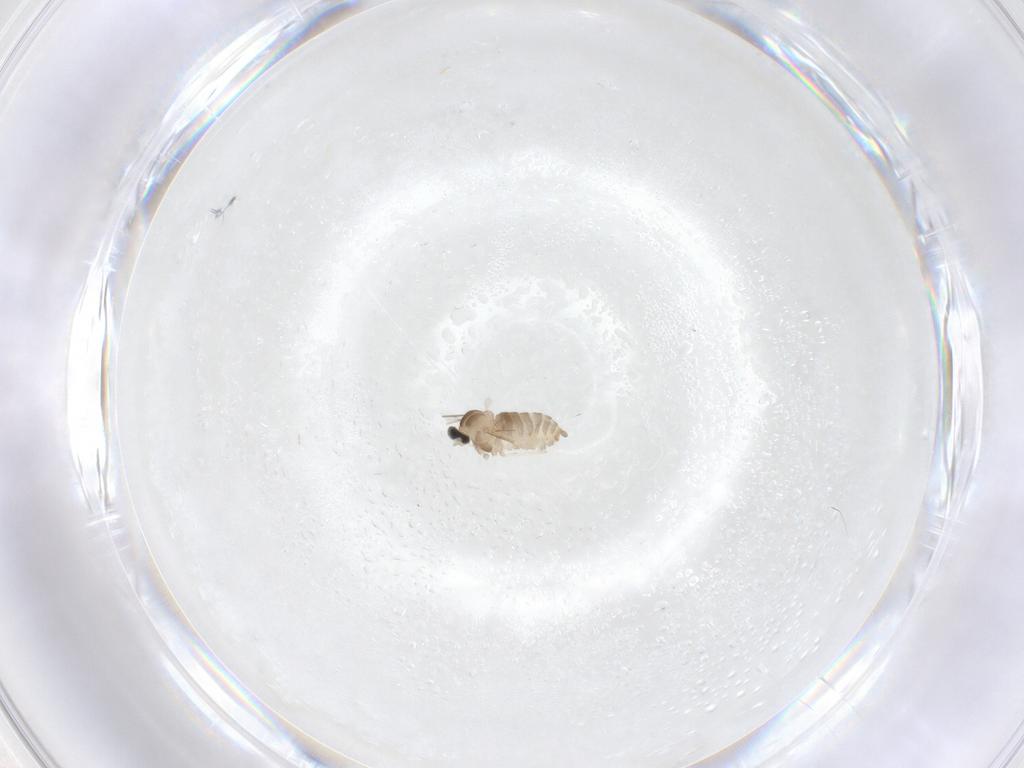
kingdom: Animalia
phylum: Arthropoda
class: Insecta
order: Diptera
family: Cecidomyiidae
